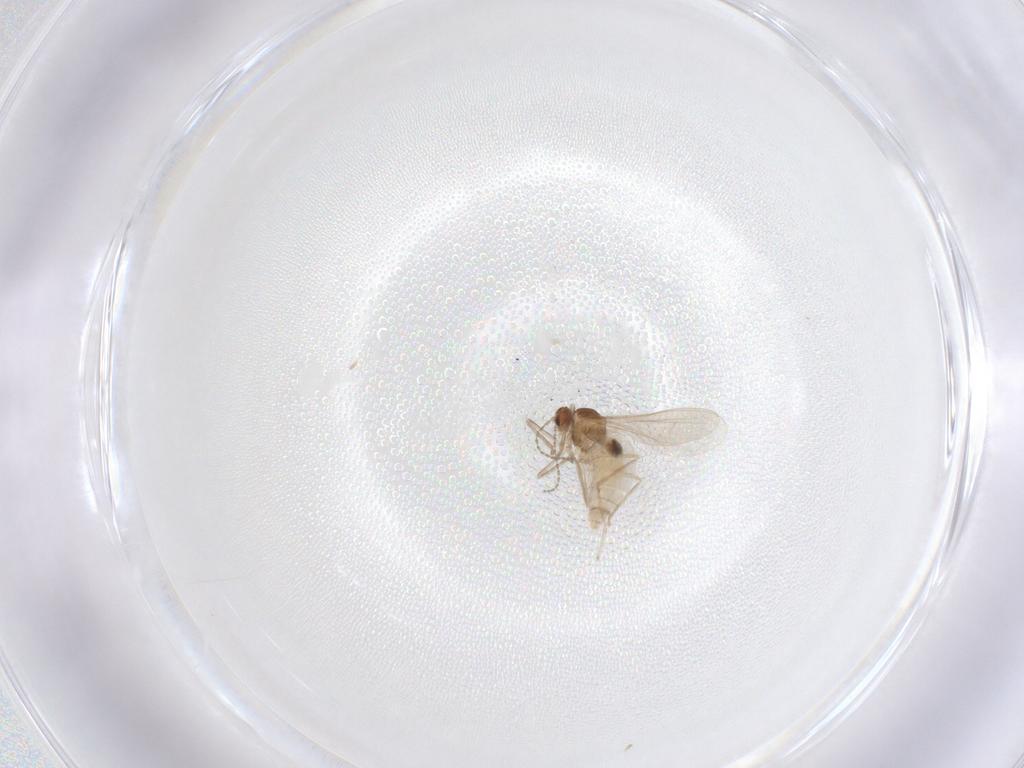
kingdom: Animalia
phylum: Arthropoda
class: Insecta
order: Diptera
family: Cecidomyiidae
